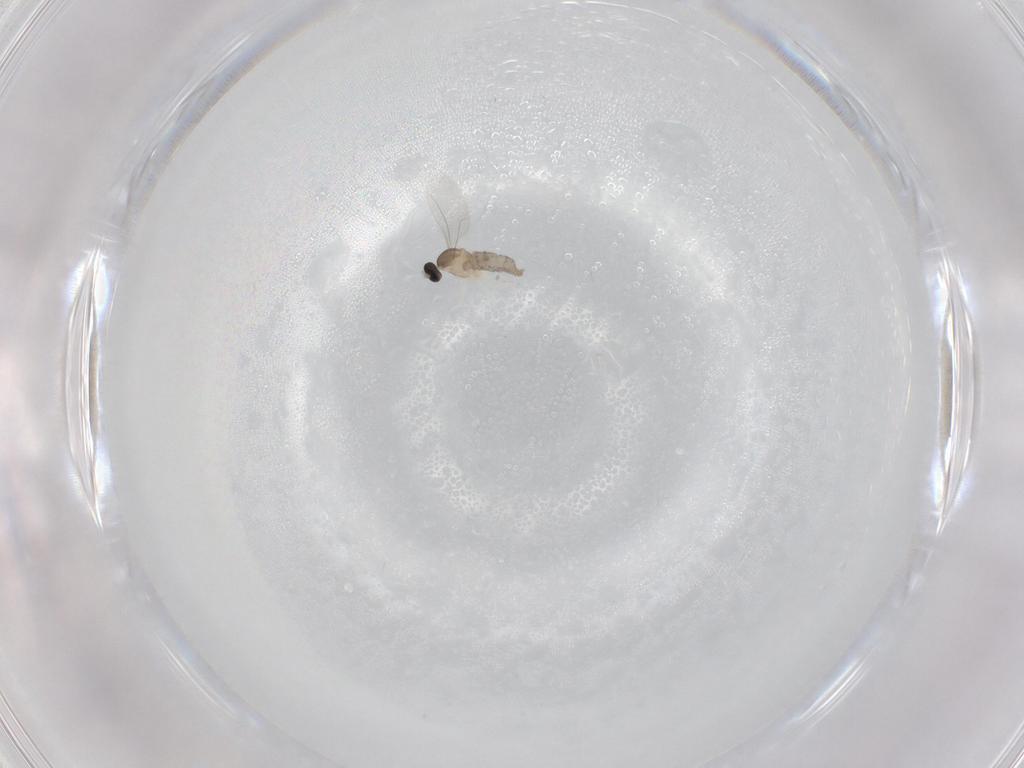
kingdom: Animalia
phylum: Arthropoda
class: Insecta
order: Diptera
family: Cecidomyiidae
